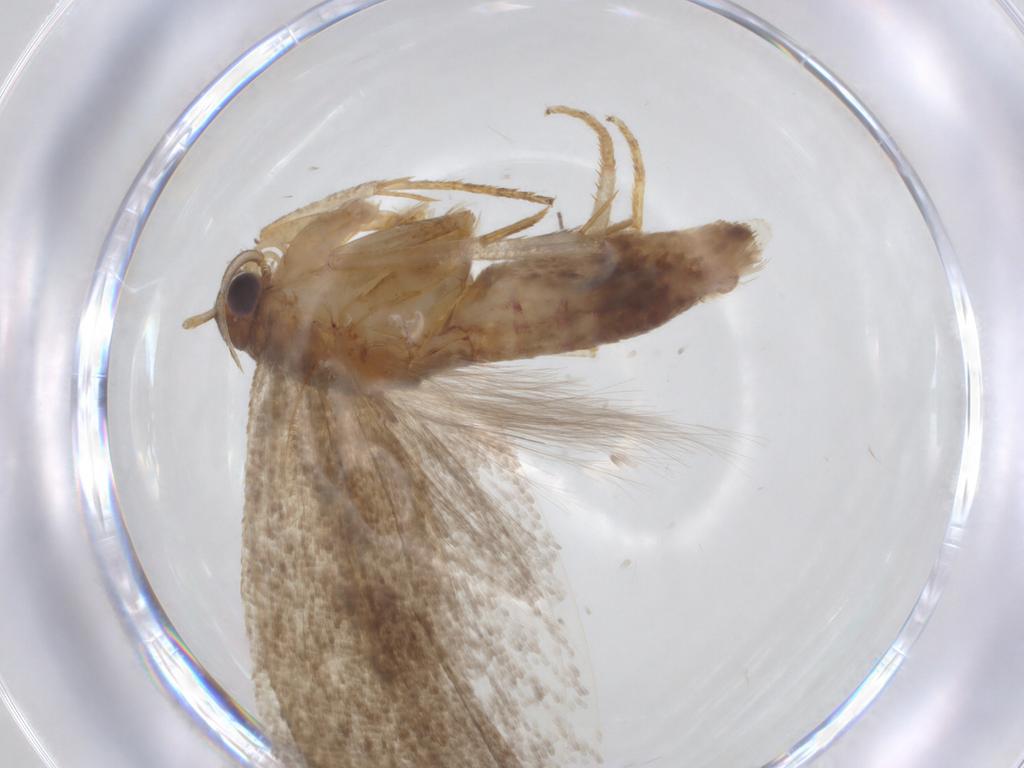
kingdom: Animalia
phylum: Arthropoda
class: Insecta
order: Lepidoptera
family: Gelechiidae
